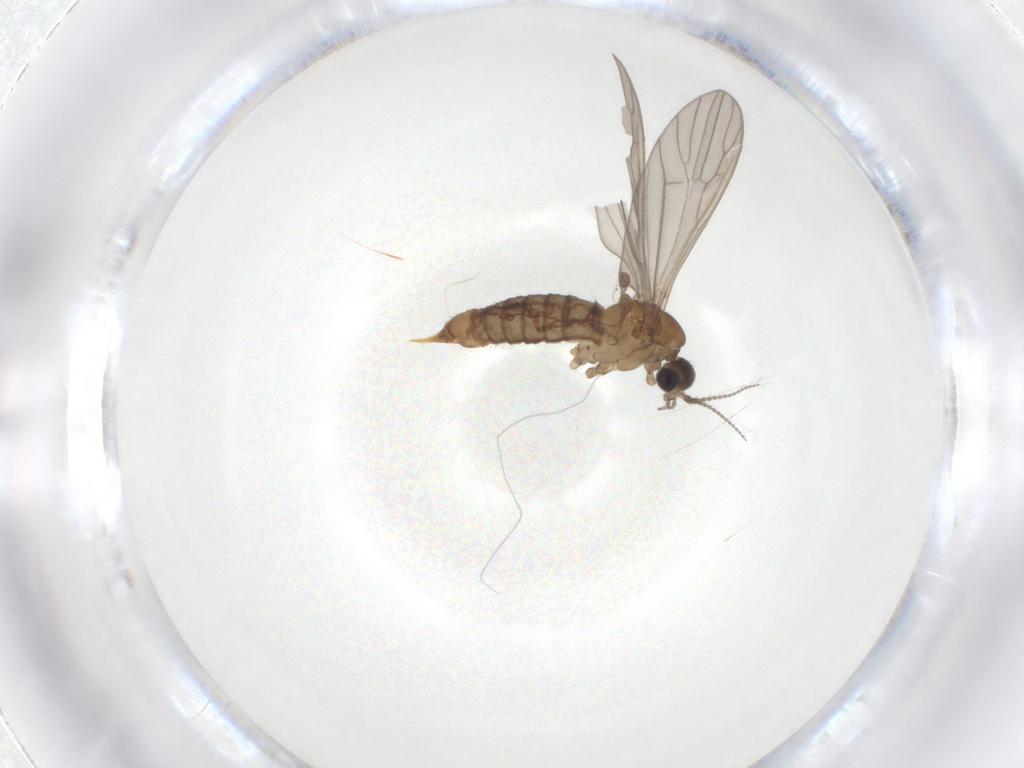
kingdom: Animalia
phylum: Arthropoda
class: Insecta
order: Diptera
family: Limoniidae
